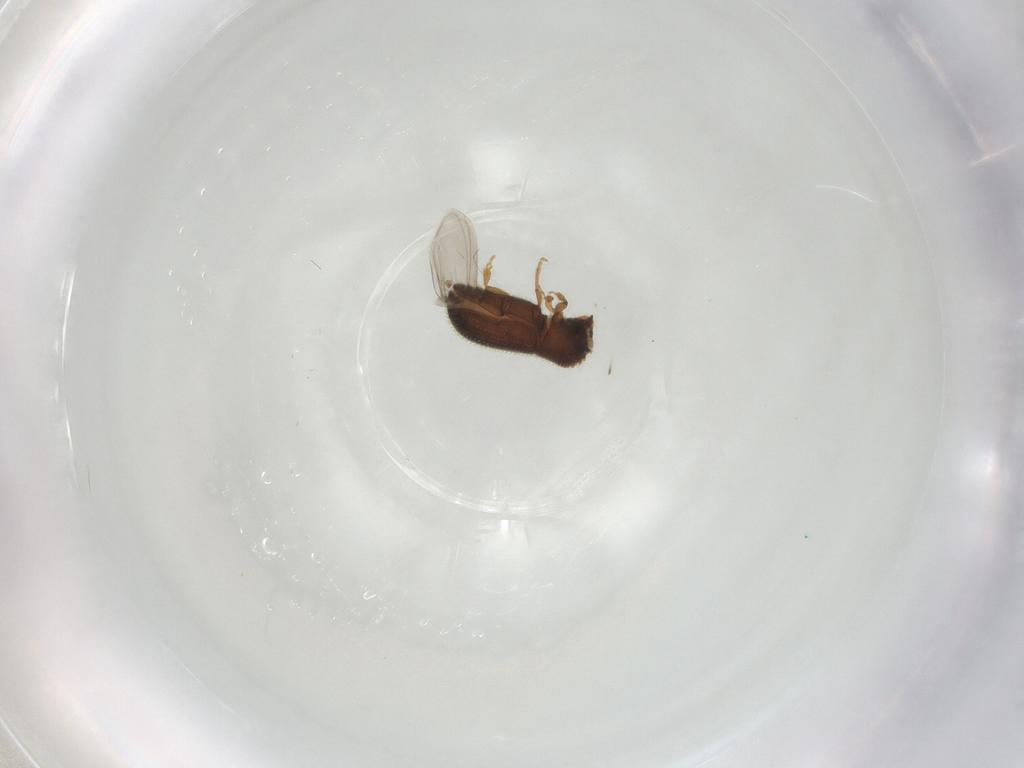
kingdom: Animalia
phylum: Arthropoda
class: Insecta
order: Coleoptera
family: Curculionidae
